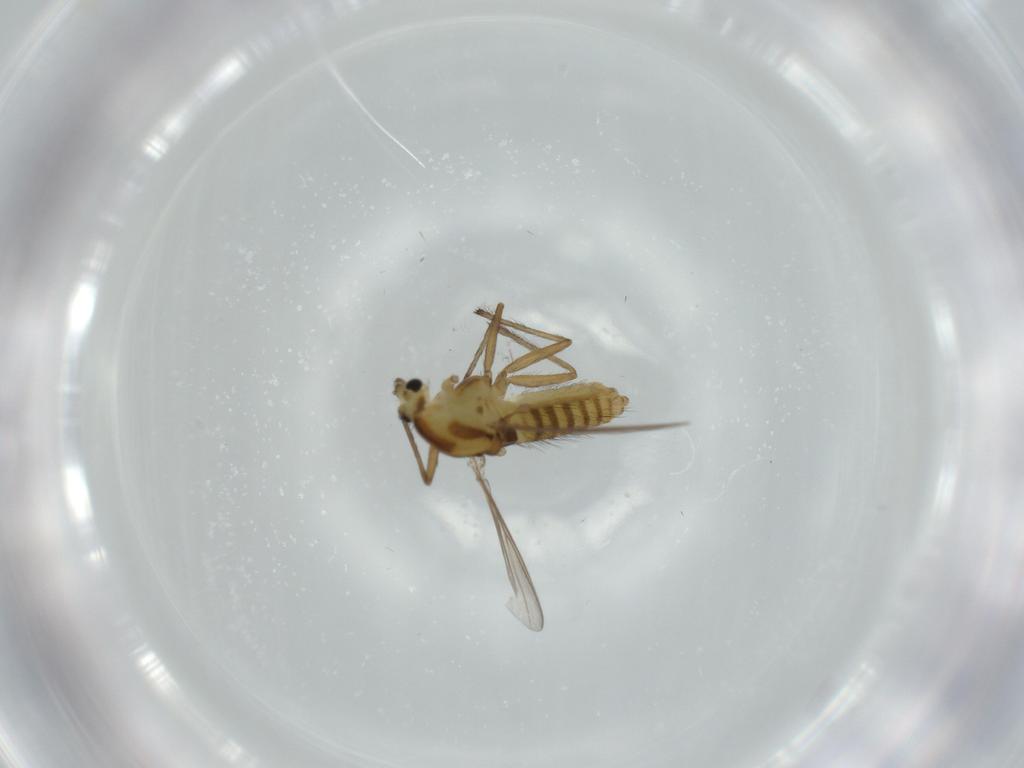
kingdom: Animalia
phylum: Arthropoda
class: Insecta
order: Diptera
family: Chironomidae
